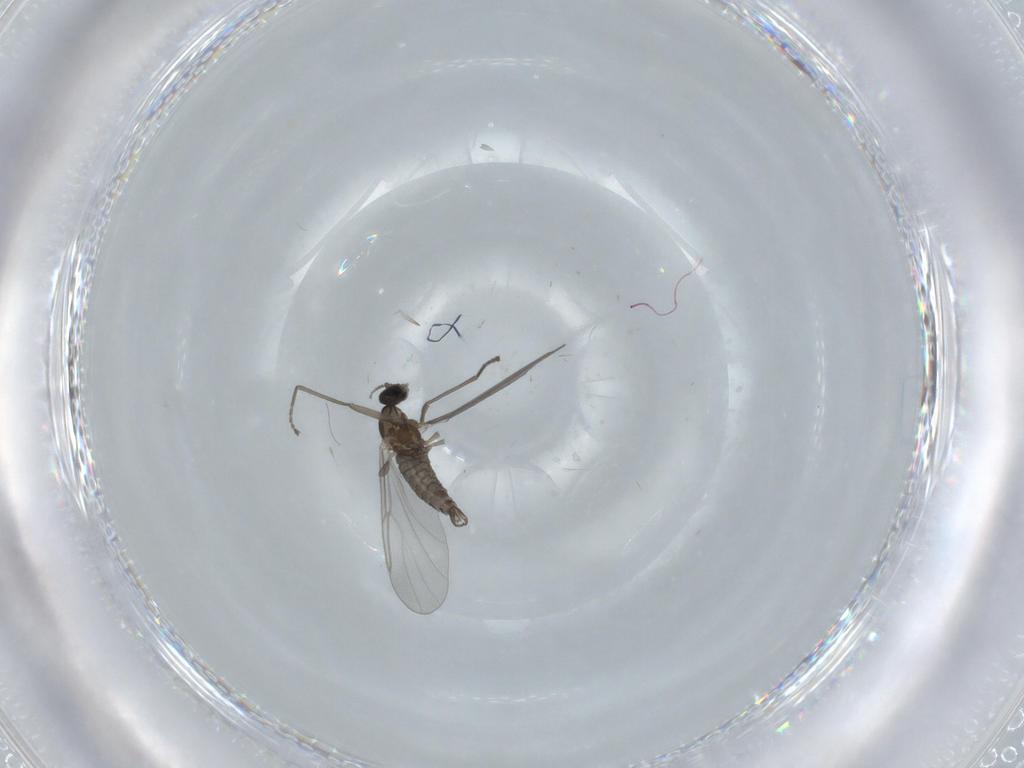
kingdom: Animalia
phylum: Arthropoda
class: Insecta
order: Diptera
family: Cecidomyiidae
